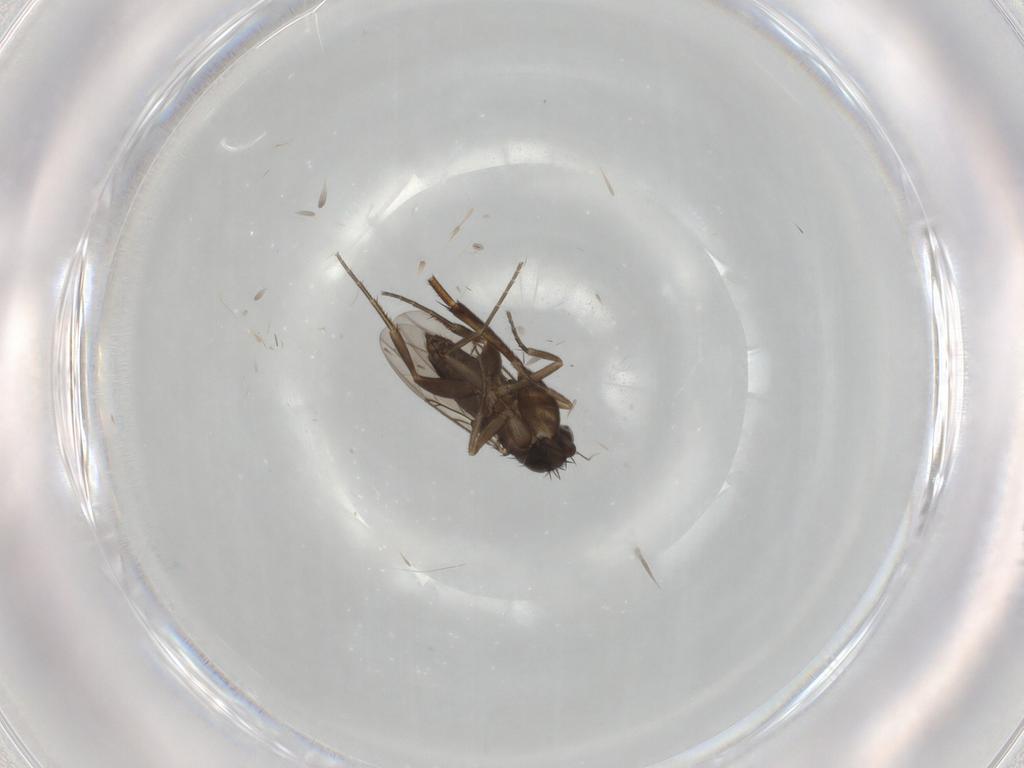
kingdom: Animalia
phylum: Arthropoda
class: Insecta
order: Diptera
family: Phoridae
